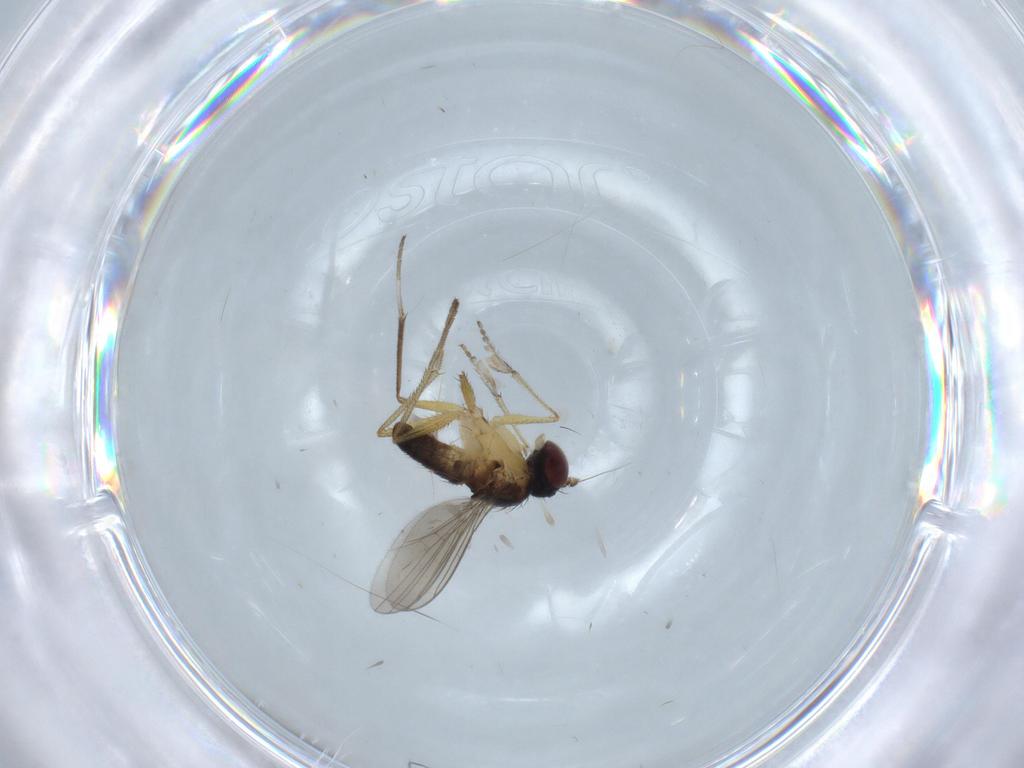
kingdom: Animalia
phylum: Arthropoda
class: Insecta
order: Diptera
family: Dolichopodidae
